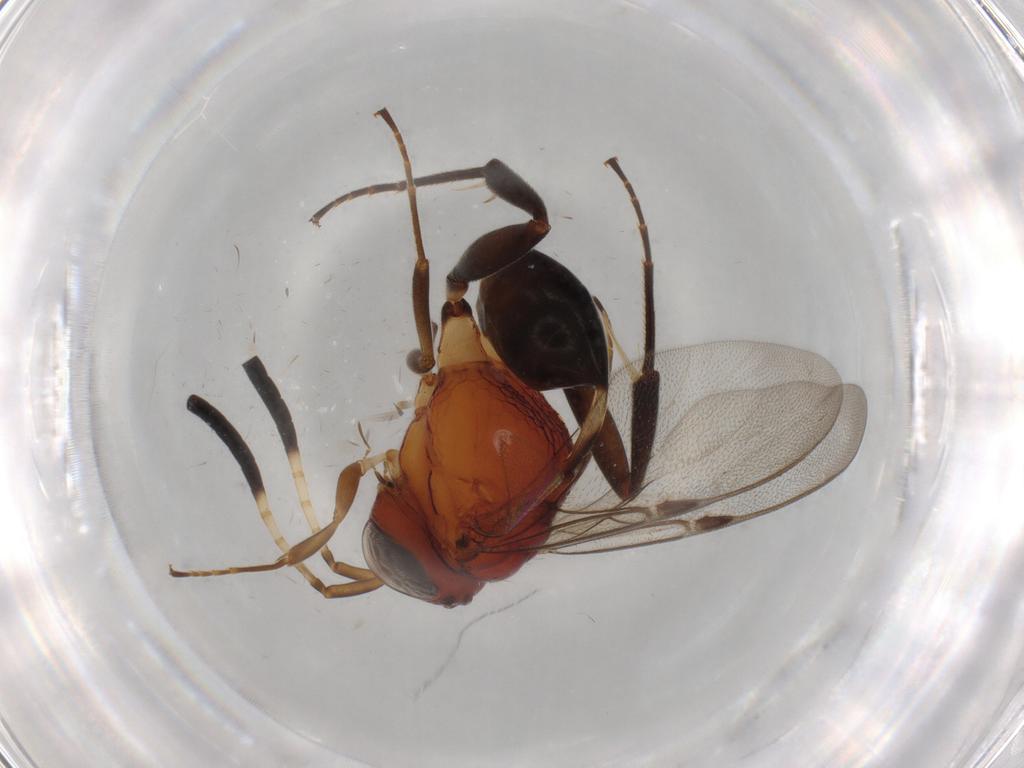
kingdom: Animalia
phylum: Arthropoda
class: Insecta
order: Hymenoptera
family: Evaniidae
